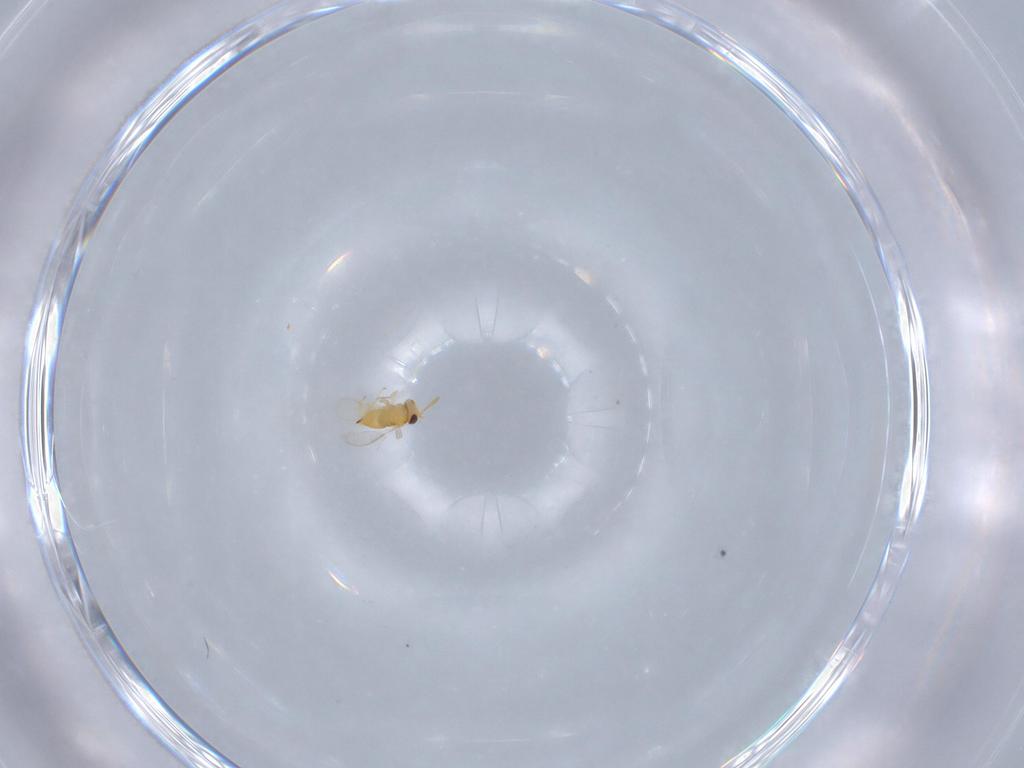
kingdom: Animalia
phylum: Arthropoda
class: Insecta
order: Hymenoptera
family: Aphelinidae
